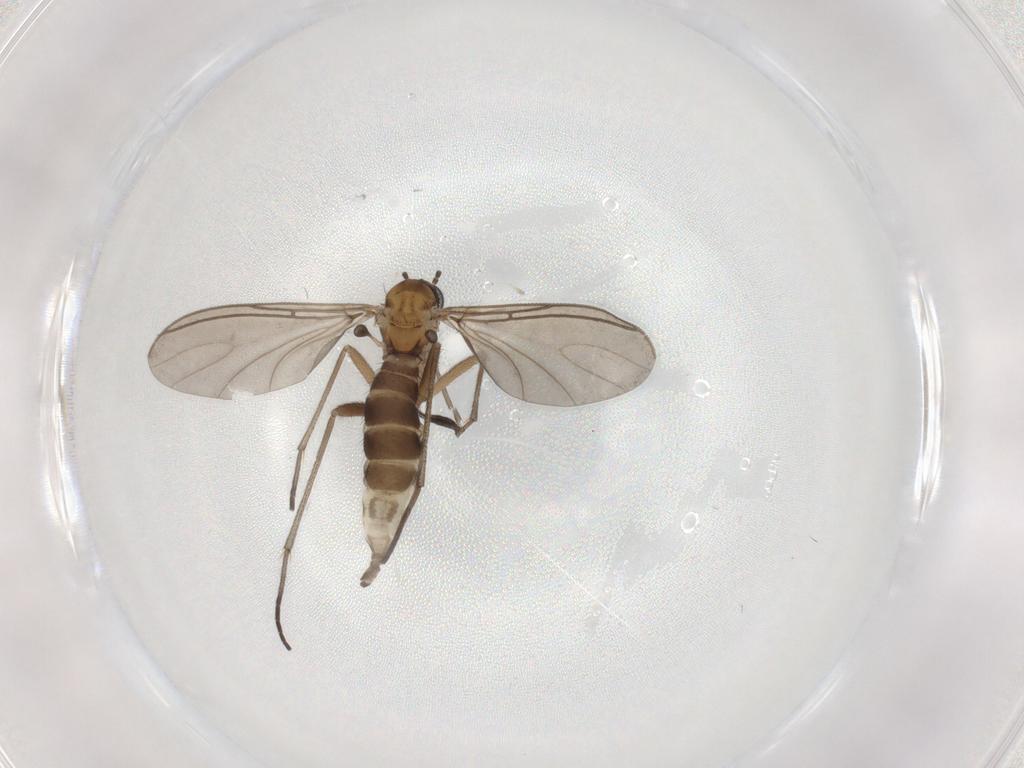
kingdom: Animalia
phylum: Arthropoda
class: Insecta
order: Diptera
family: Sciaridae
